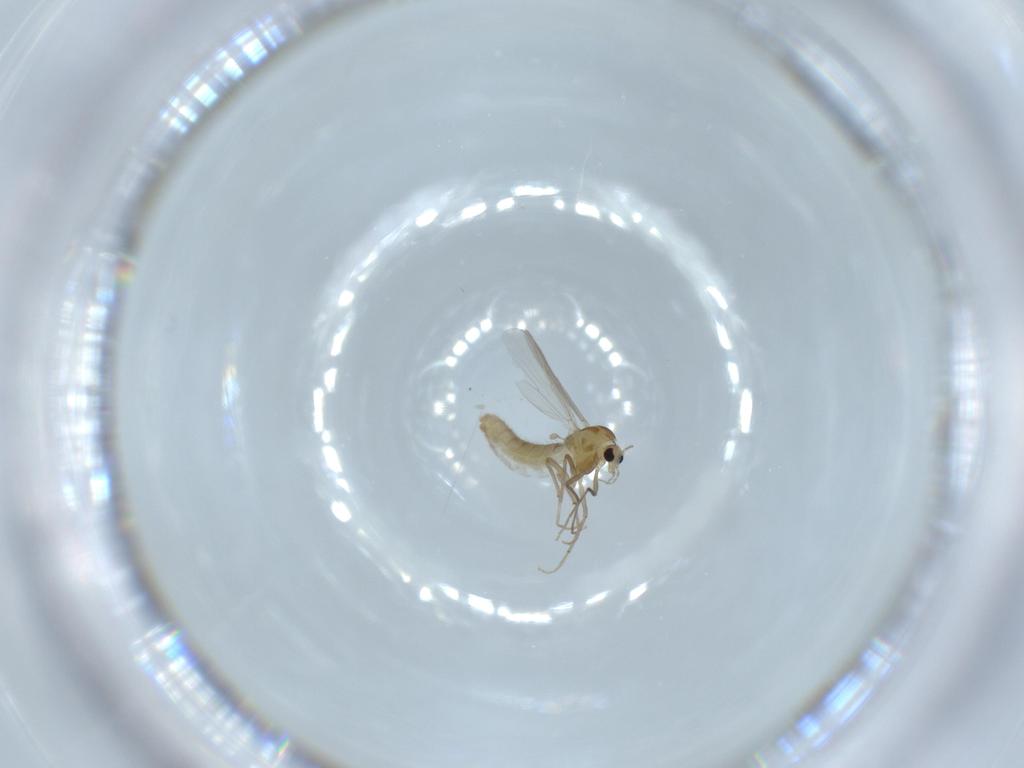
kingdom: Animalia
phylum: Arthropoda
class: Insecta
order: Diptera
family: Chironomidae
